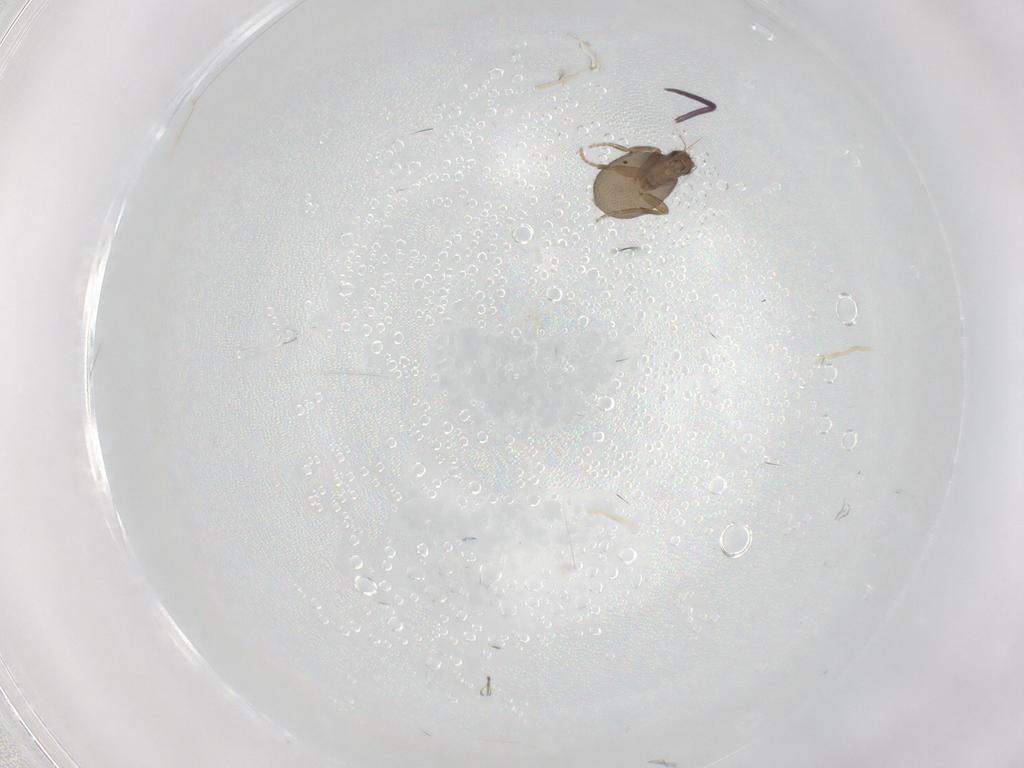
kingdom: Animalia
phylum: Arthropoda
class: Insecta
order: Diptera
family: Phoridae
